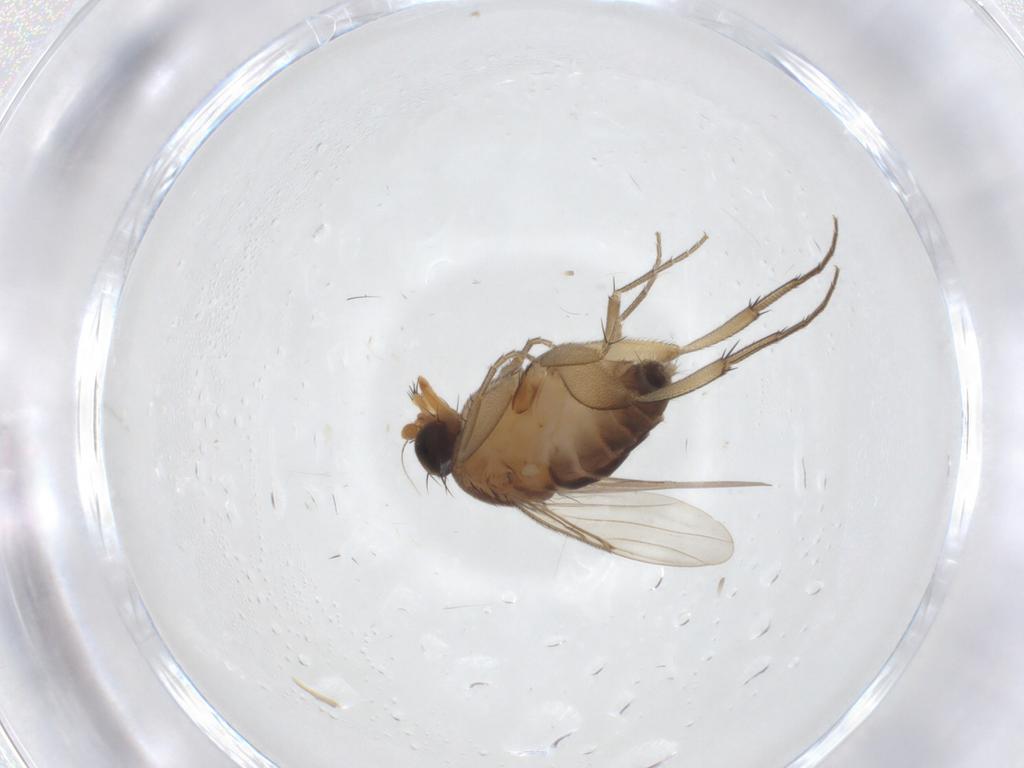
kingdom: Animalia
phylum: Arthropoda
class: Insecta
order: Diptera
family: Phoridae
